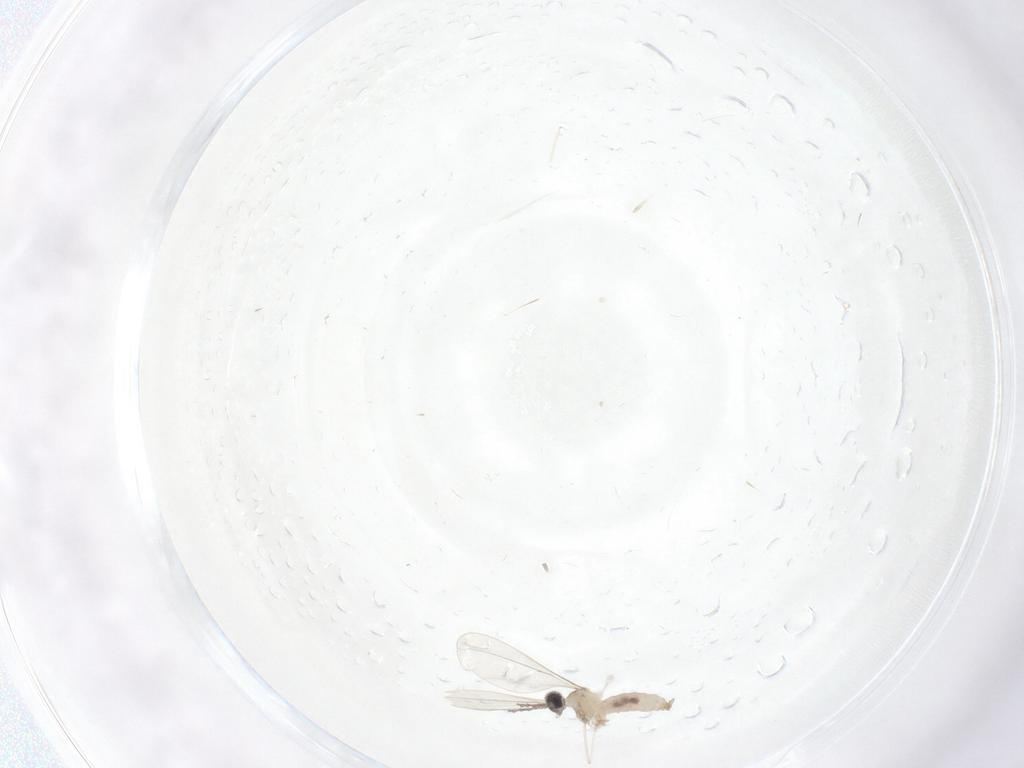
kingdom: Animalia
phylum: Arthropoda
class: Insecta
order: Diptera
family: Cecidomyiidae
